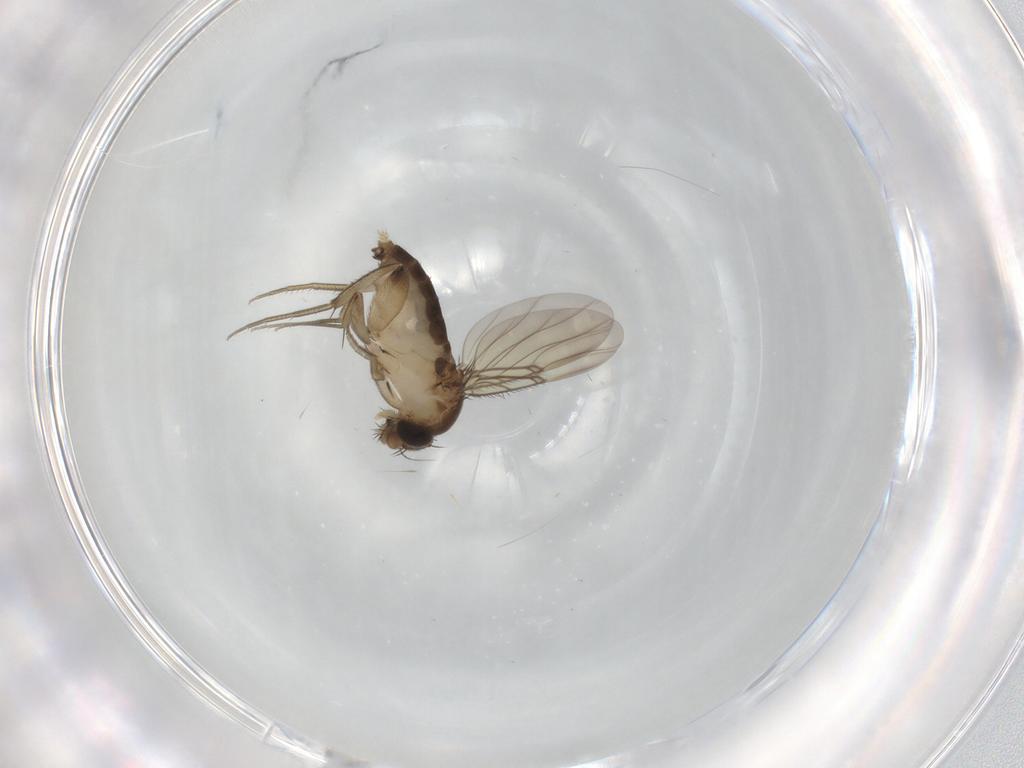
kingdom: Animalia
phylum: Arthropoda
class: Insecta
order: Diptera
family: Phoridae
